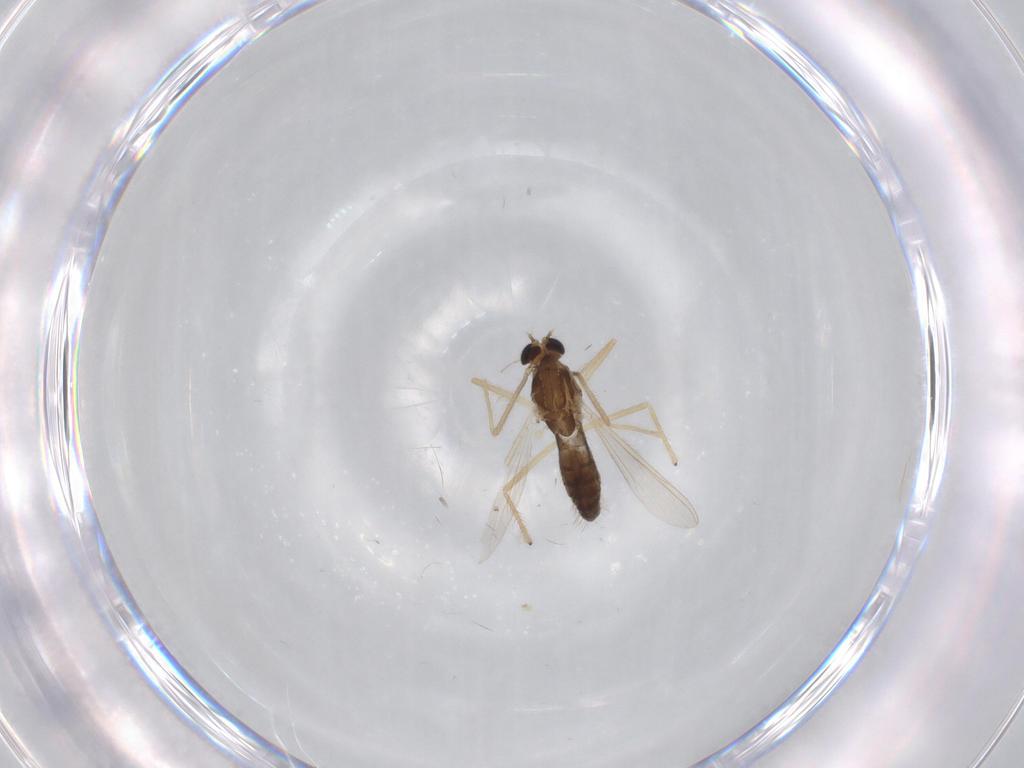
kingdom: Animalia
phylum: Arthropoda
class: Insecta
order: Diptera
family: Chironomidae
